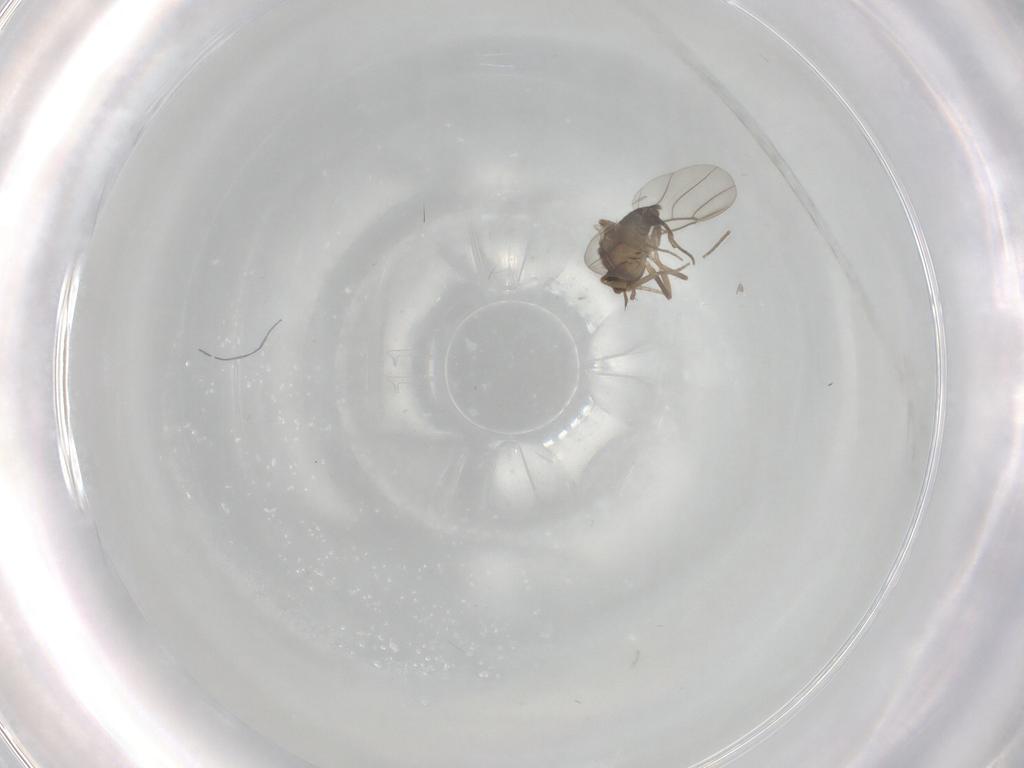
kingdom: Animalia
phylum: Arthropoda
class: Insecta
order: Diptera
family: Phoridae
